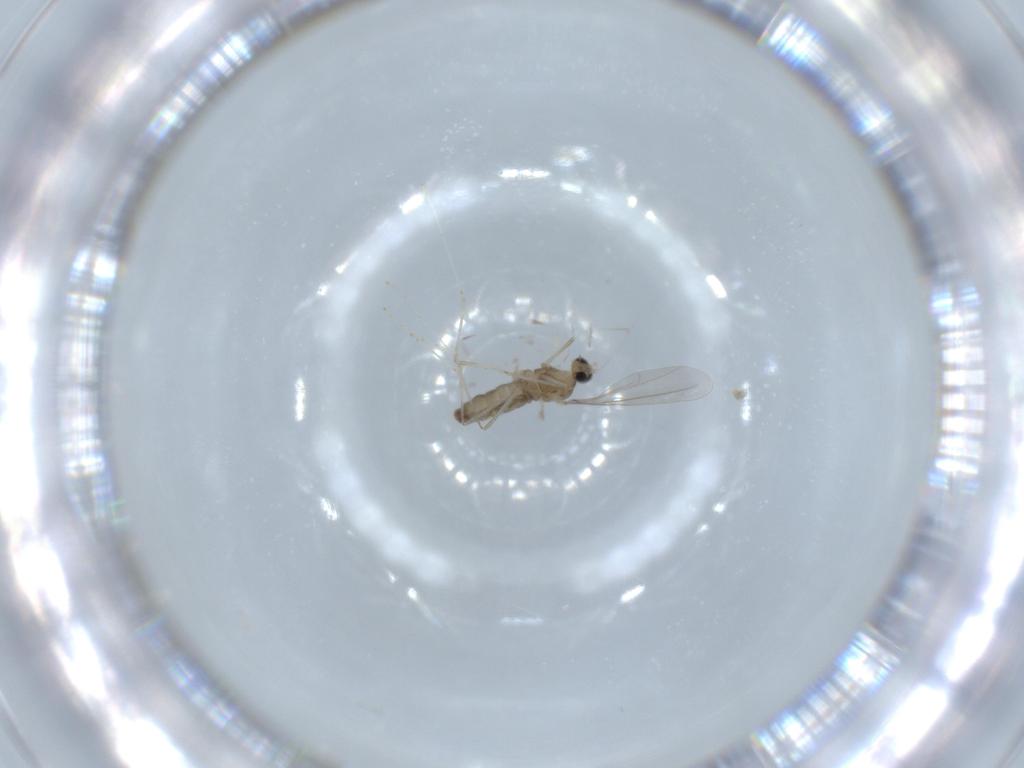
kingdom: Animalia
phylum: Arthropoda
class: Insecta
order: Diptera
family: Cecidomyiidae
